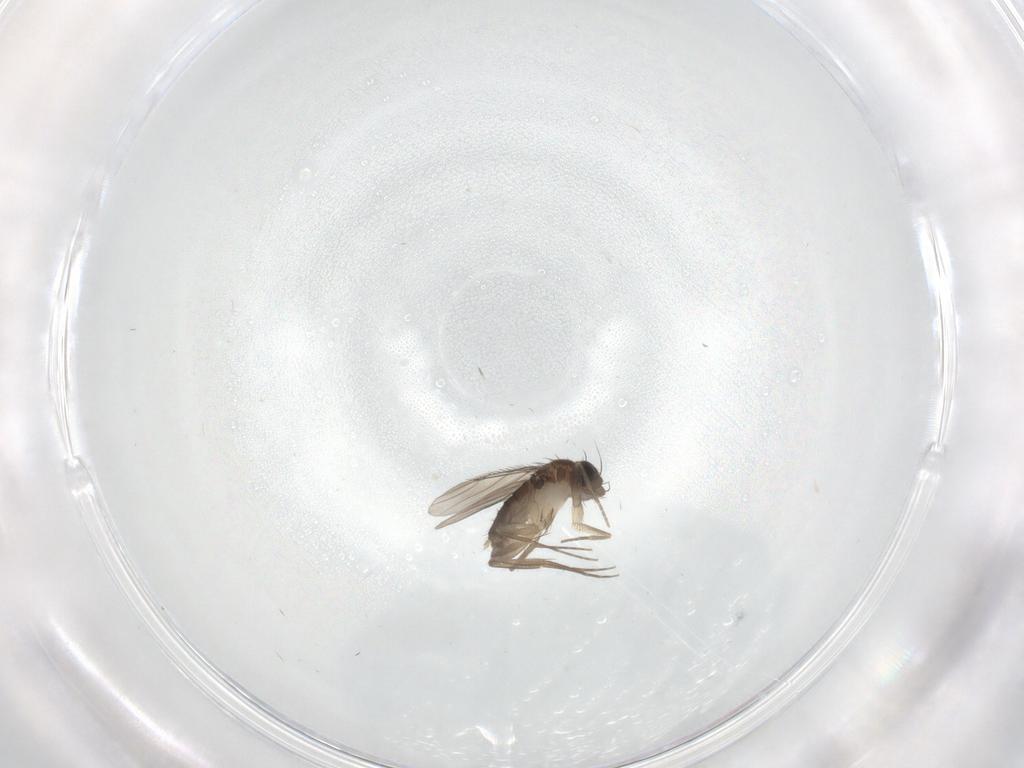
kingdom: Animalia
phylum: Arthropoda
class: Insecta
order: Diptera
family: Phoridae
